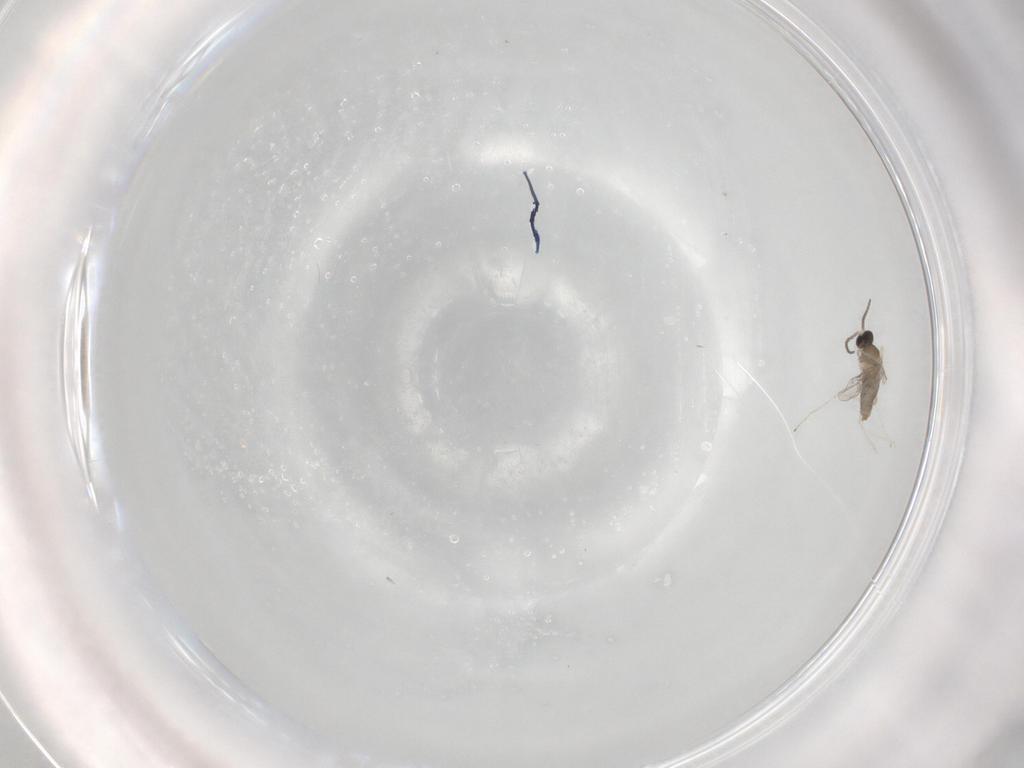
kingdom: Animalia
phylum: Arthropoda
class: Insecta
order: Diptera
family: Cecidomyiidae
